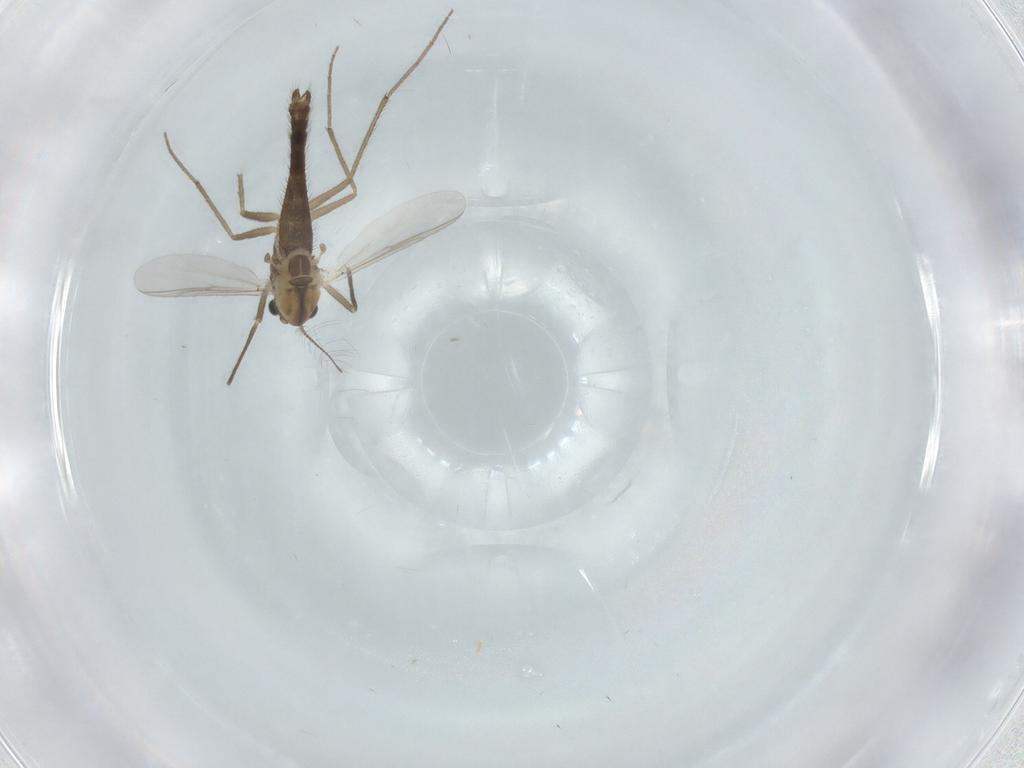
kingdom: Animalia
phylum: Arthropoda
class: Insecta
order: Diptera
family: Chironomidae
